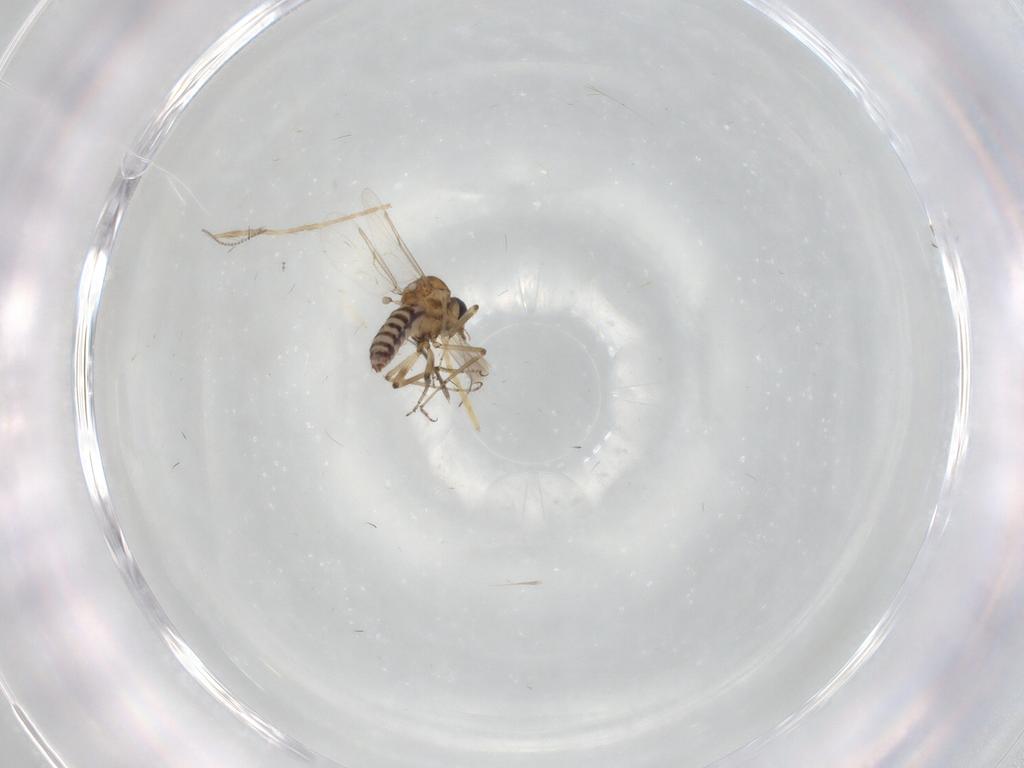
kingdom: Animalia
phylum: Arthropoda
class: Insecta
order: Diptera
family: Ceratopogonidae
